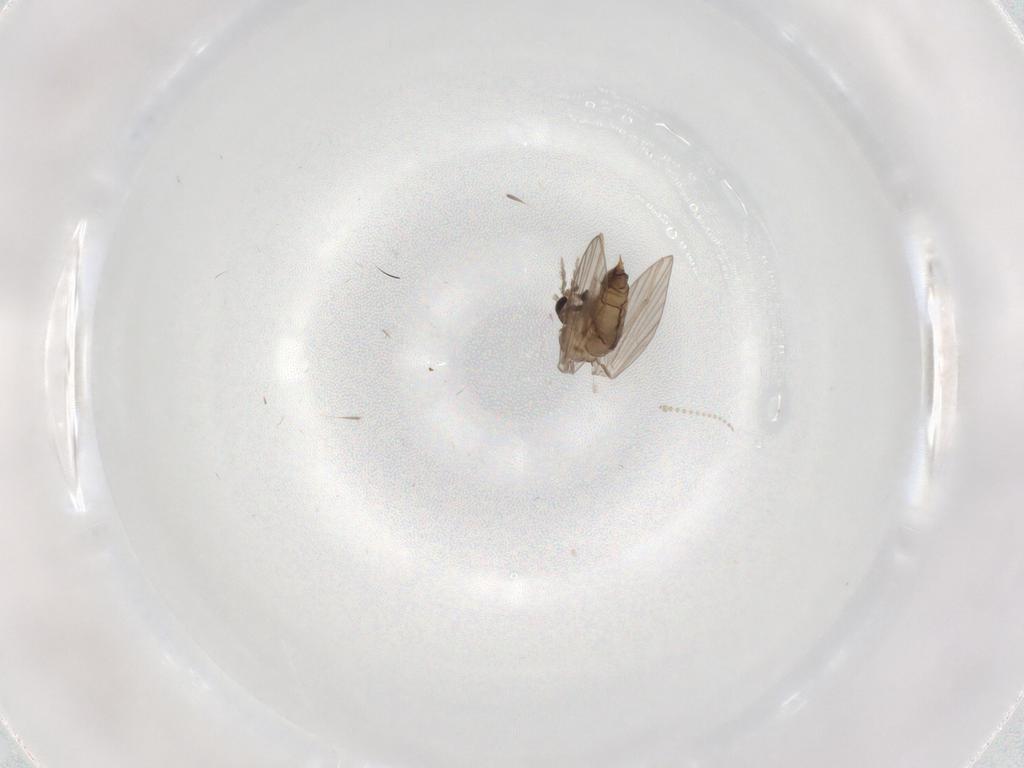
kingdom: Animalia
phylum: Arthropoda
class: Insecta
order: Diptera
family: Psychodidae
